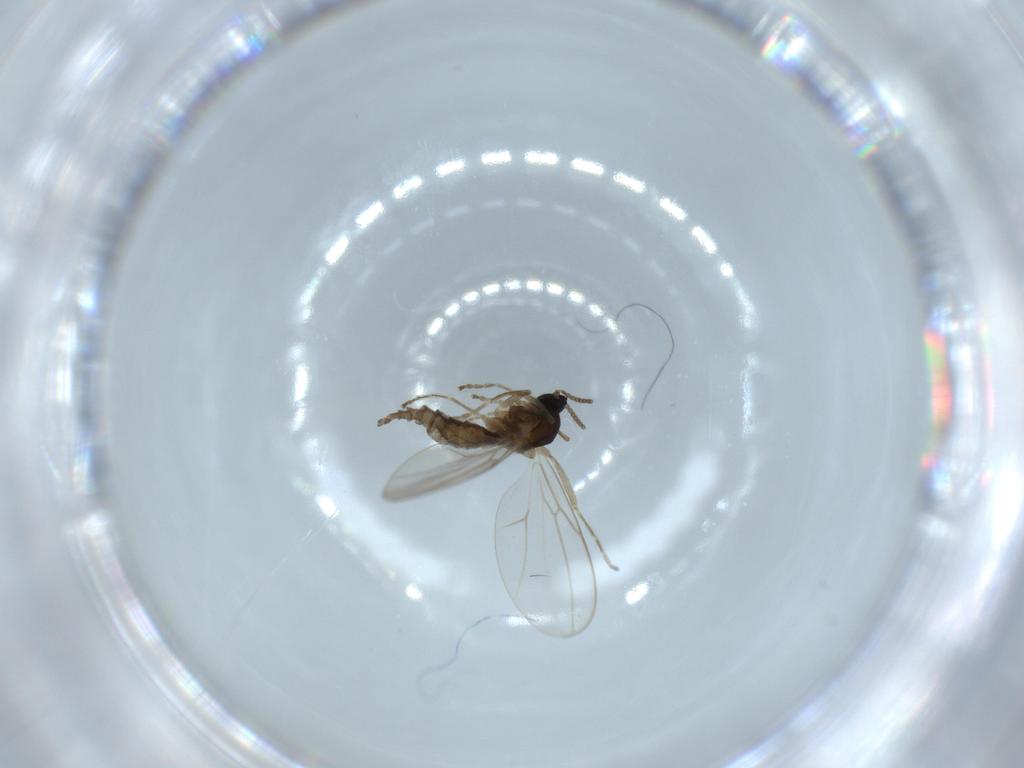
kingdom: Animalia
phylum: Arthropoda
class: Insecta
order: Diptera
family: Cecidomyiidae
